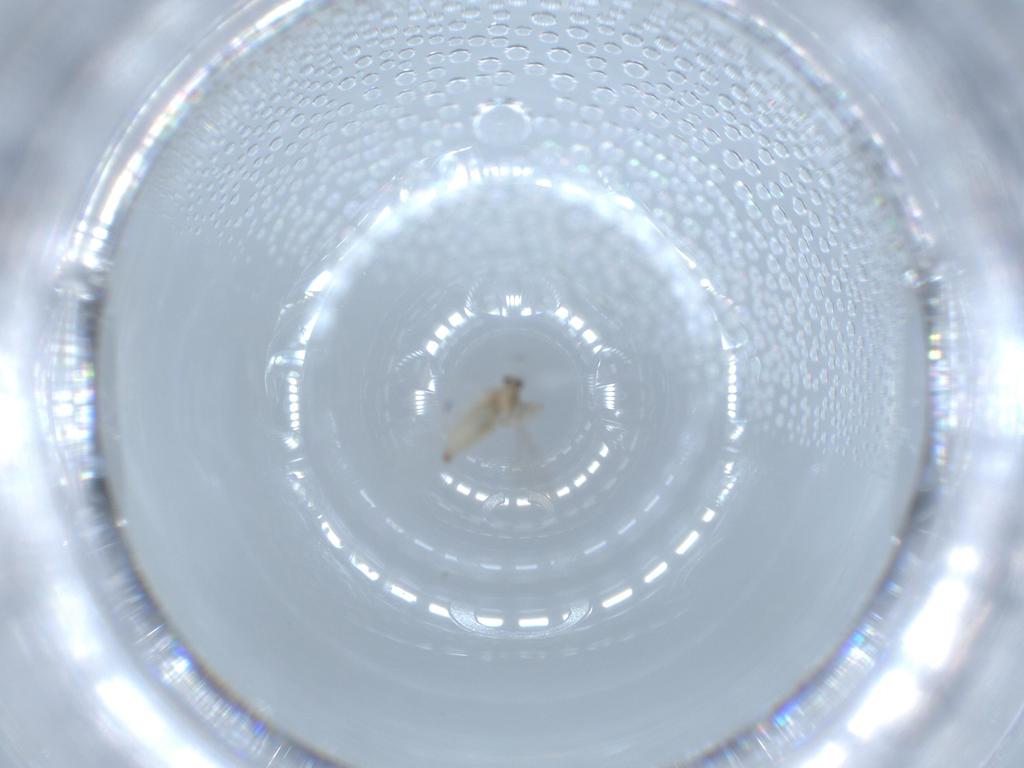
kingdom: Animalia
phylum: Arthropoda
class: Insecta
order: Diptera
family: Cecidomyiidae
